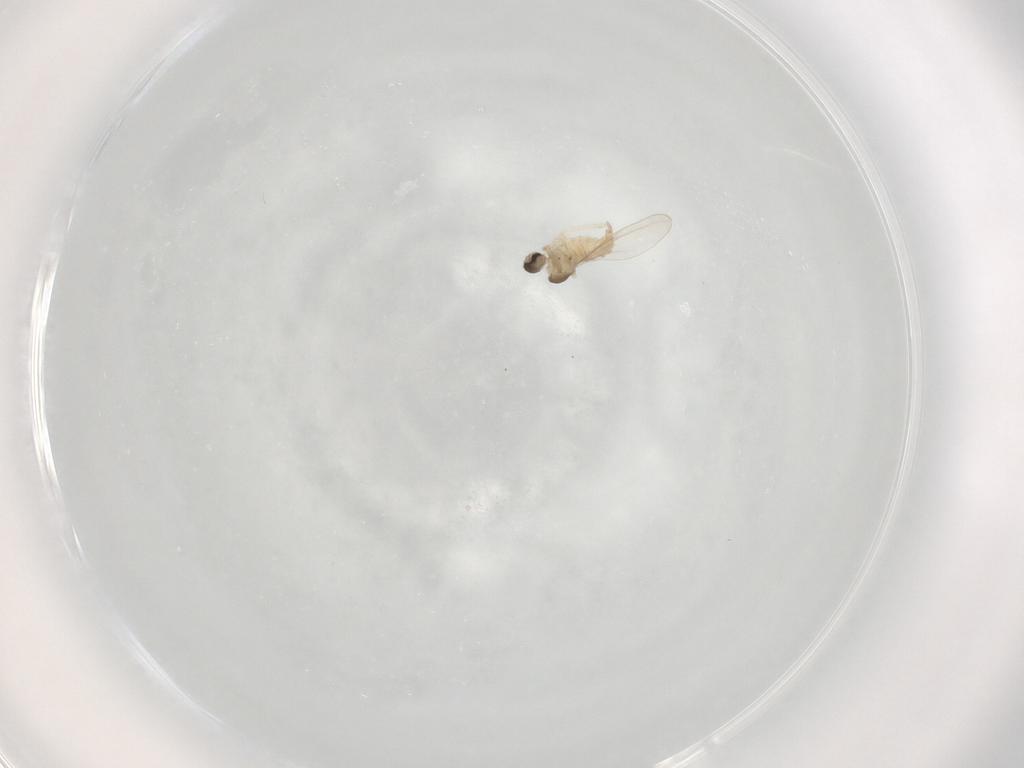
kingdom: Animalia
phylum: Arthropoda
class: Insecta
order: Diptera
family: Cecidomyiidae
